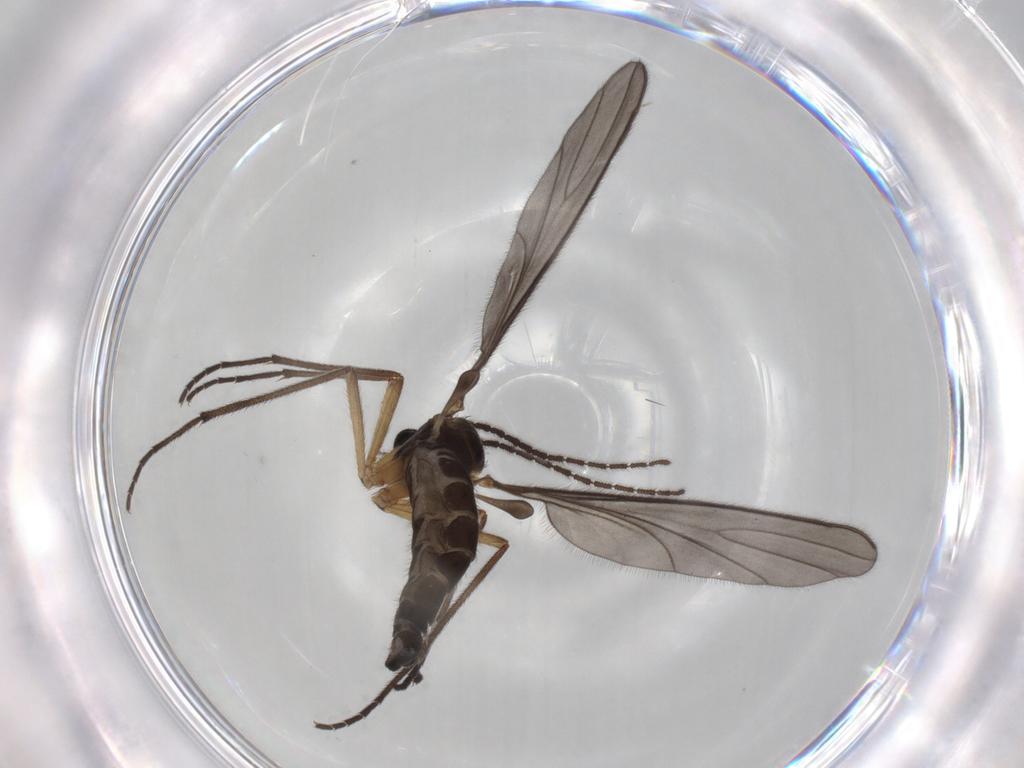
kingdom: Animalia
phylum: Arthropoda
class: Insecta
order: Diptera
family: Sciaridae
